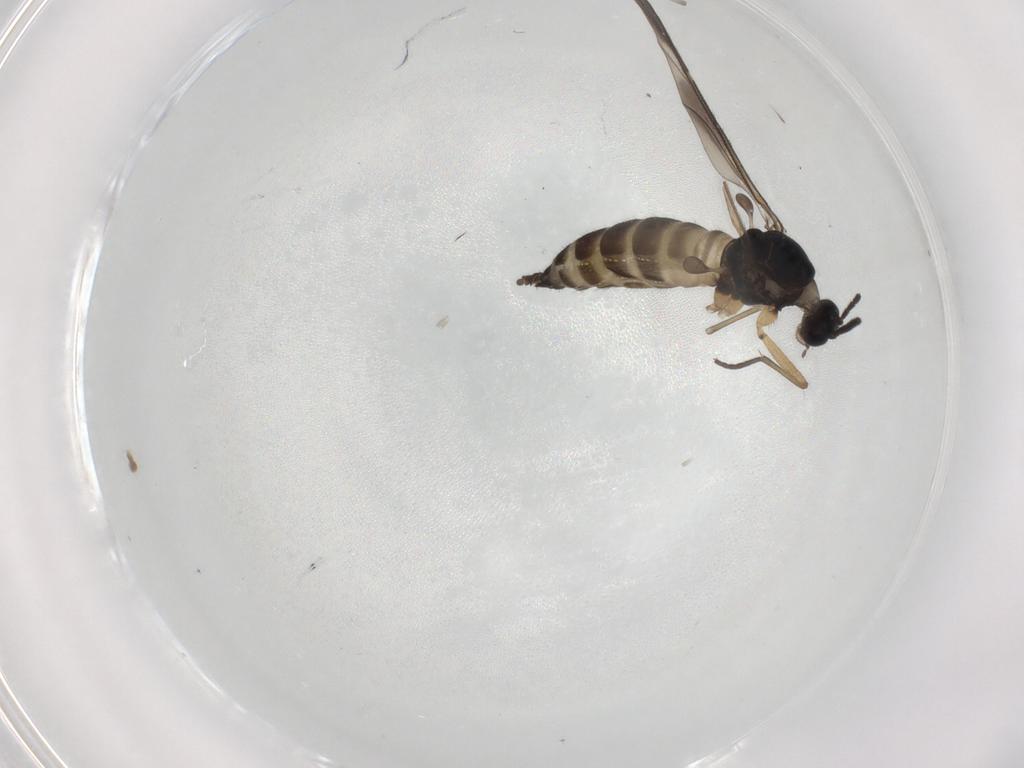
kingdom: Animalia
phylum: Arthropoda
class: Insecta
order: Diptera
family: Sciaridae
